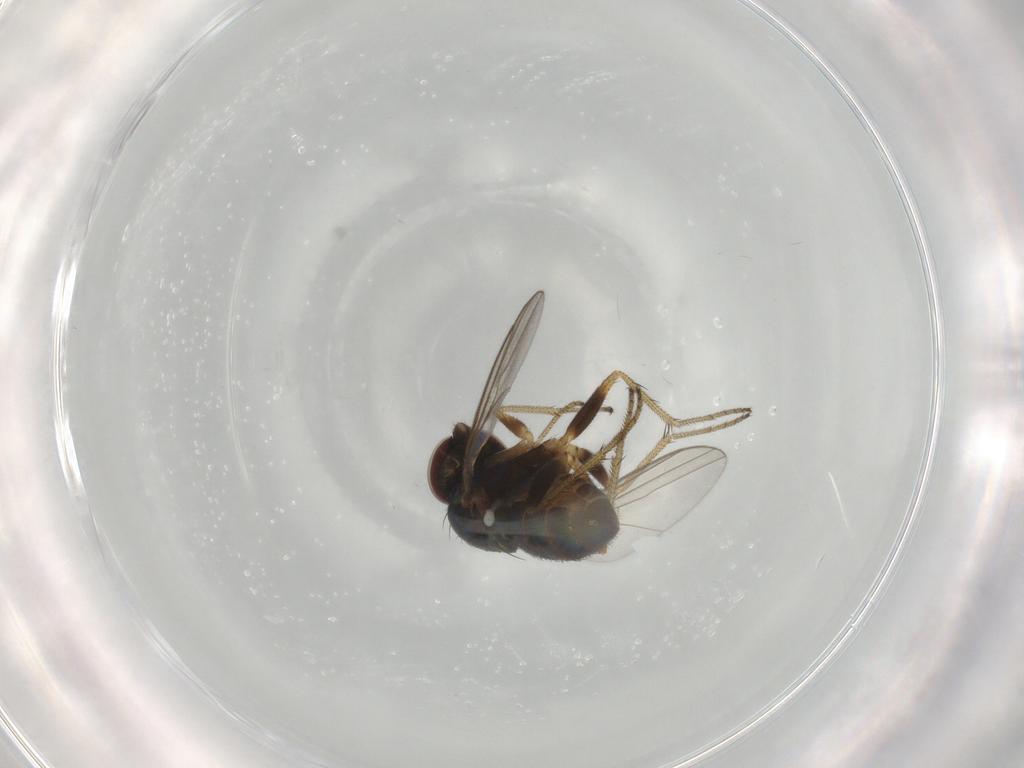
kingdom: Animalia
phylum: Arthropoda
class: Insecta
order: Diptera
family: Dolichopodidae
